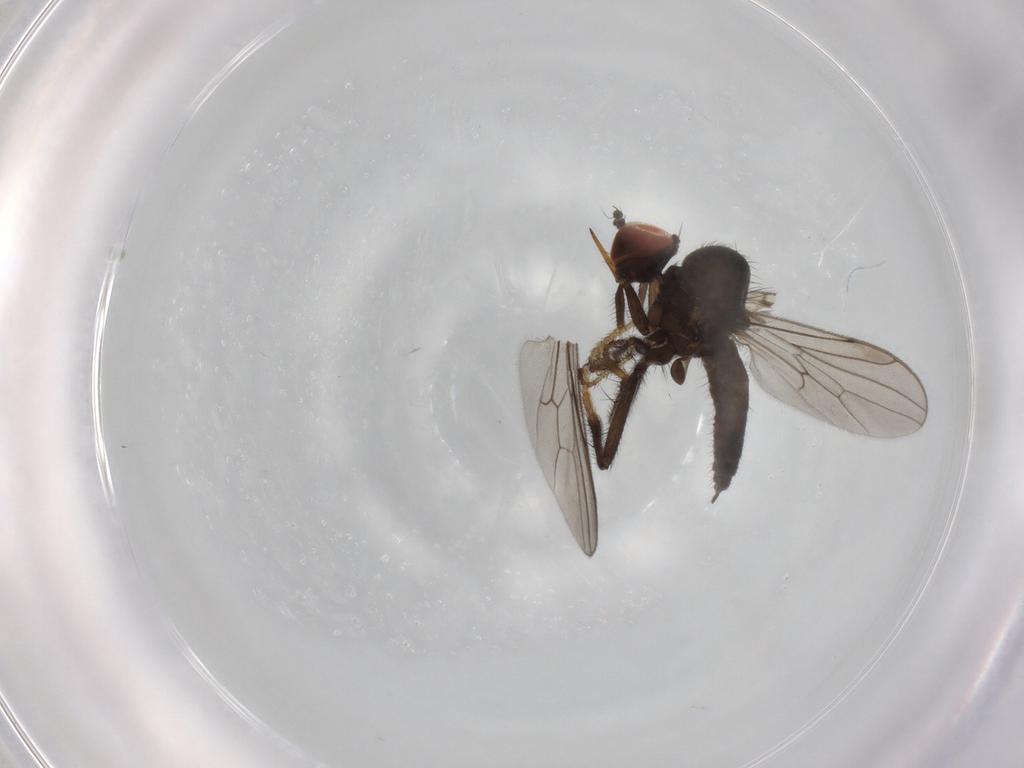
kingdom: Animalia
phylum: Arthropoda
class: Insecta
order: Diptera
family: Hybotidae
